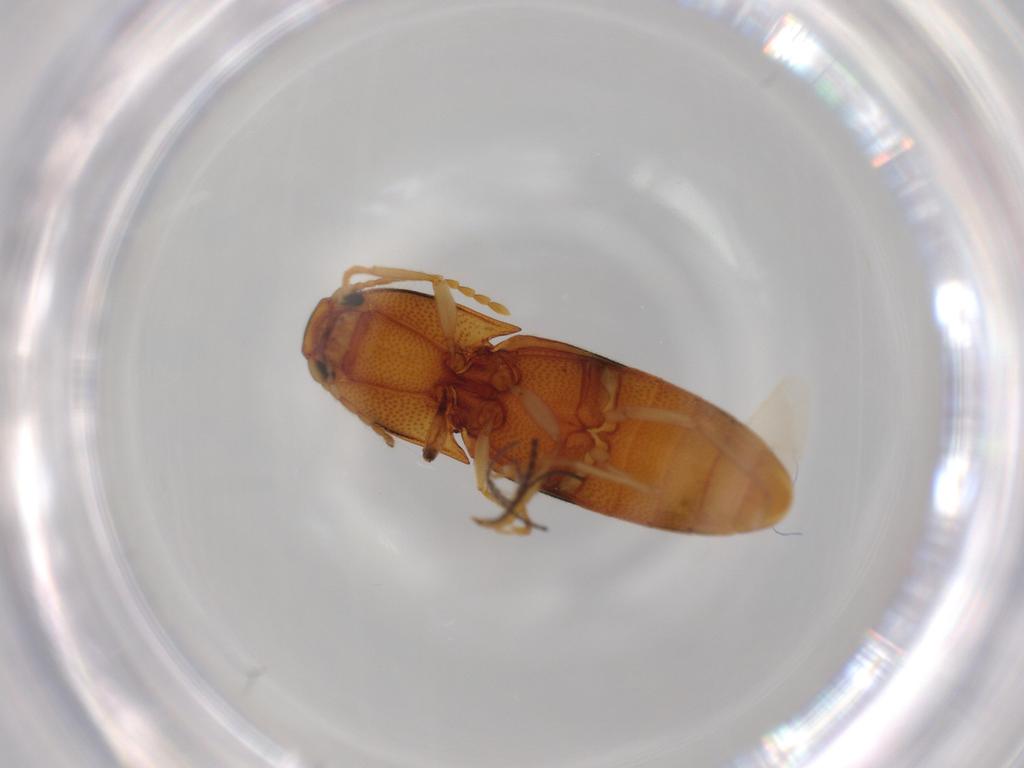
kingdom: Animalia
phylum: Arthropoda
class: Insecta
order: Coleoptera
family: Elateridae
